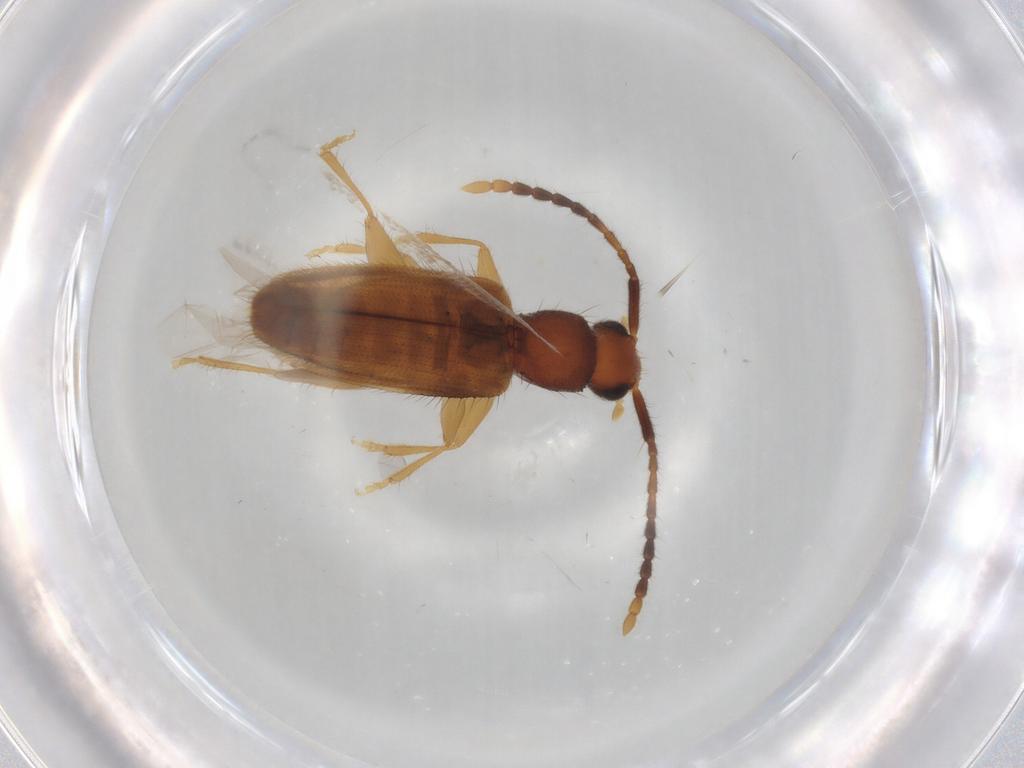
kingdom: Animalia
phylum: Arthropoda
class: Insecta
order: Coleoptera
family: Silvanidae
